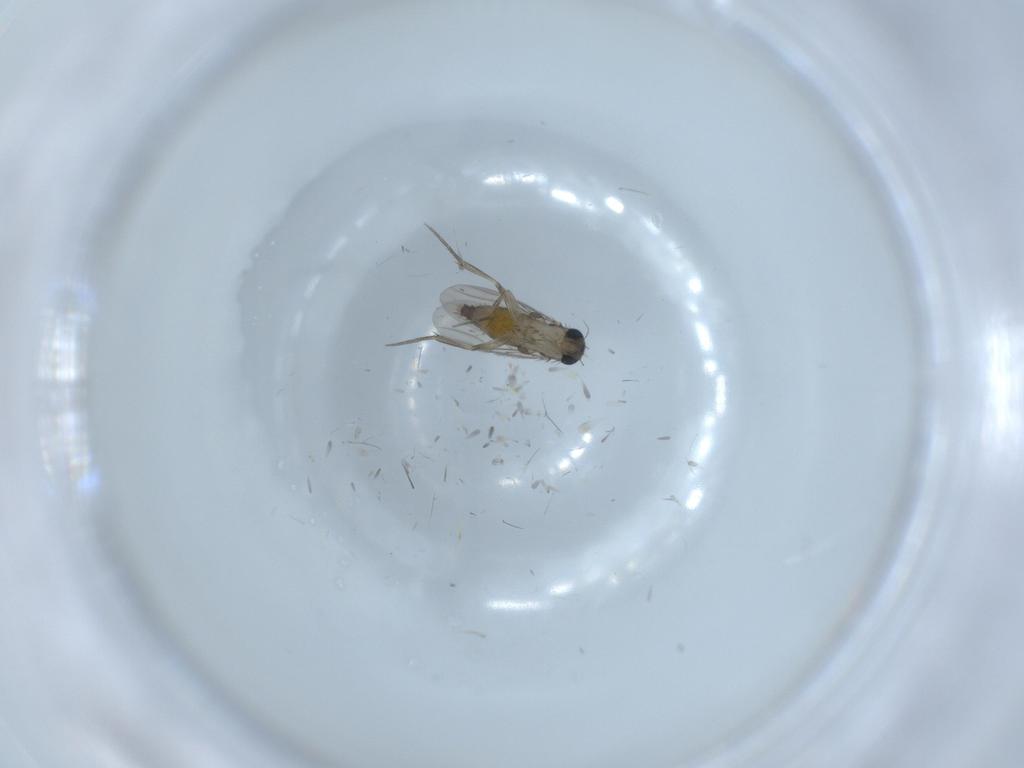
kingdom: Animalia
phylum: Arthropoda
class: Insecta
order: Diptera
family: Phoridae
